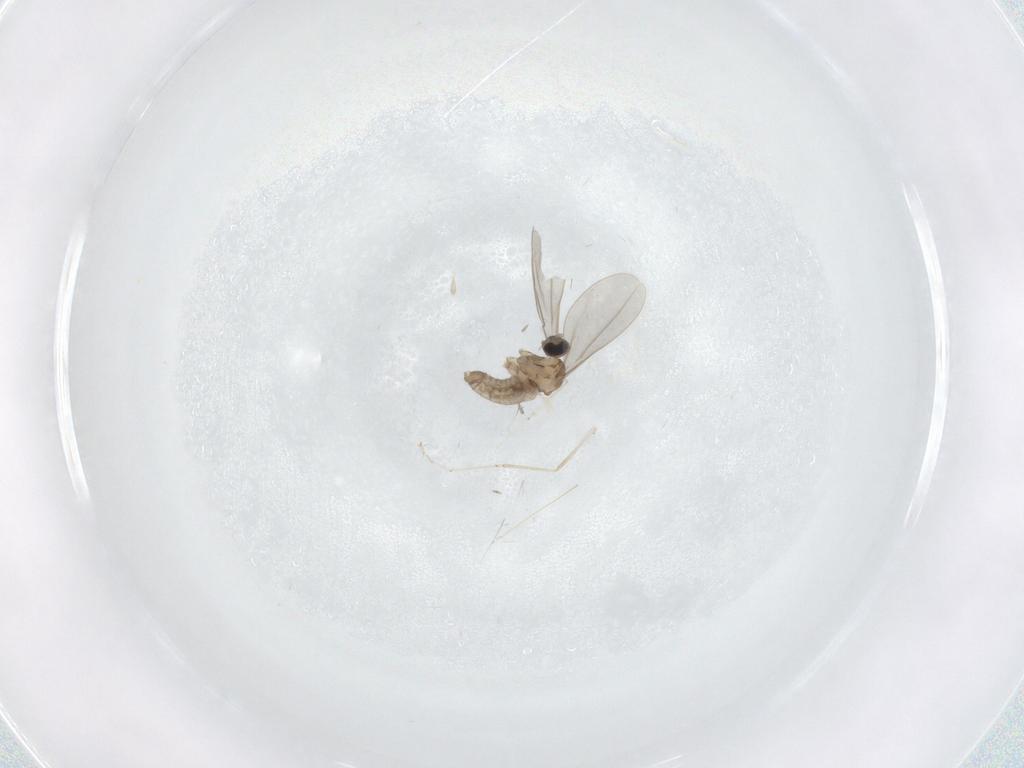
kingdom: Animalia
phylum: Arthropoda
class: Insecta
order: Diptera
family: Cecidomyiidae
